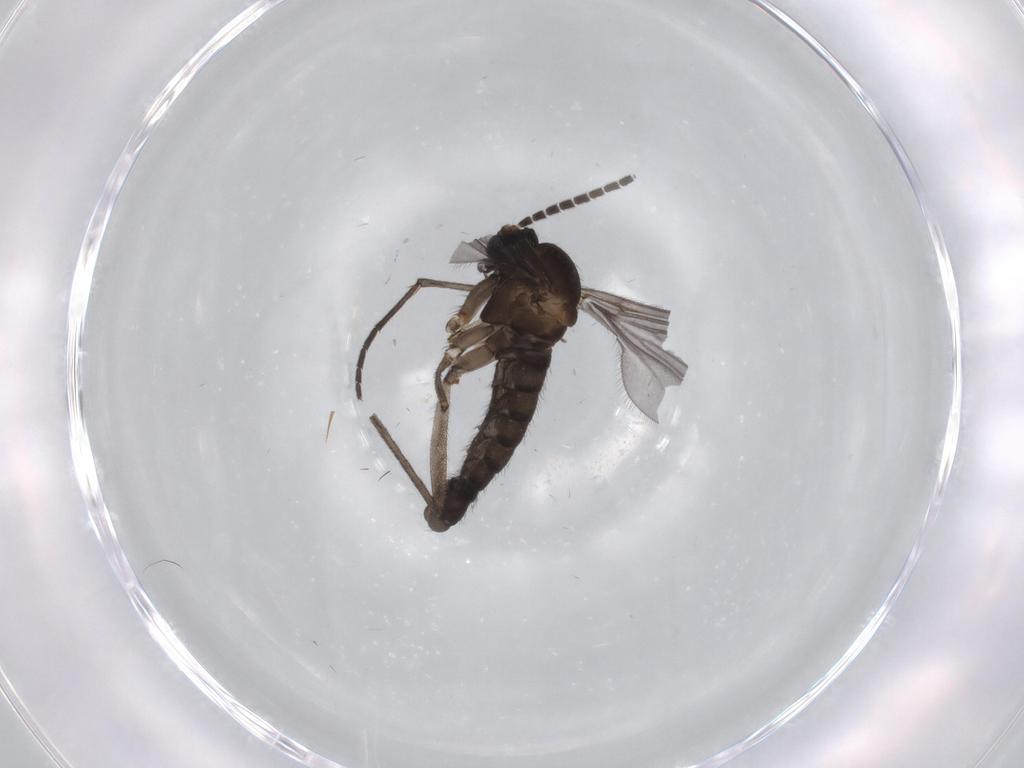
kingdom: Animalia
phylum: Arthropoda
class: Insecta
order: Diptera
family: Sciaridae
